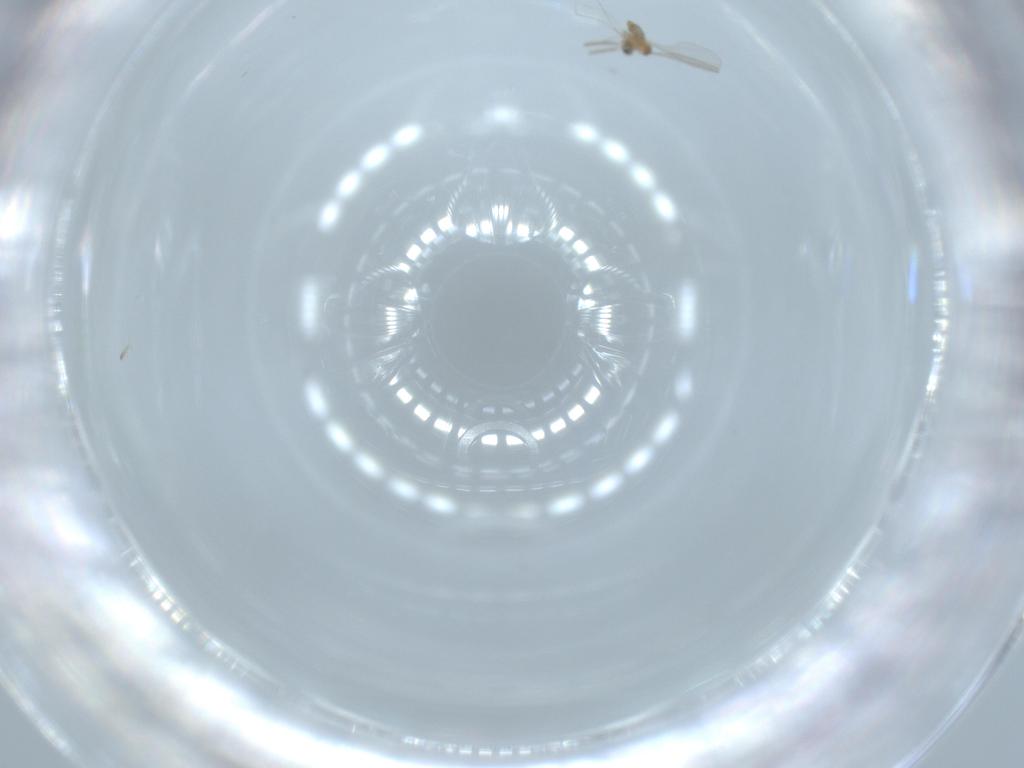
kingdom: Animalia
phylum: Arthropoda
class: Insecta
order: Diptera
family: Cecidomyiidae
